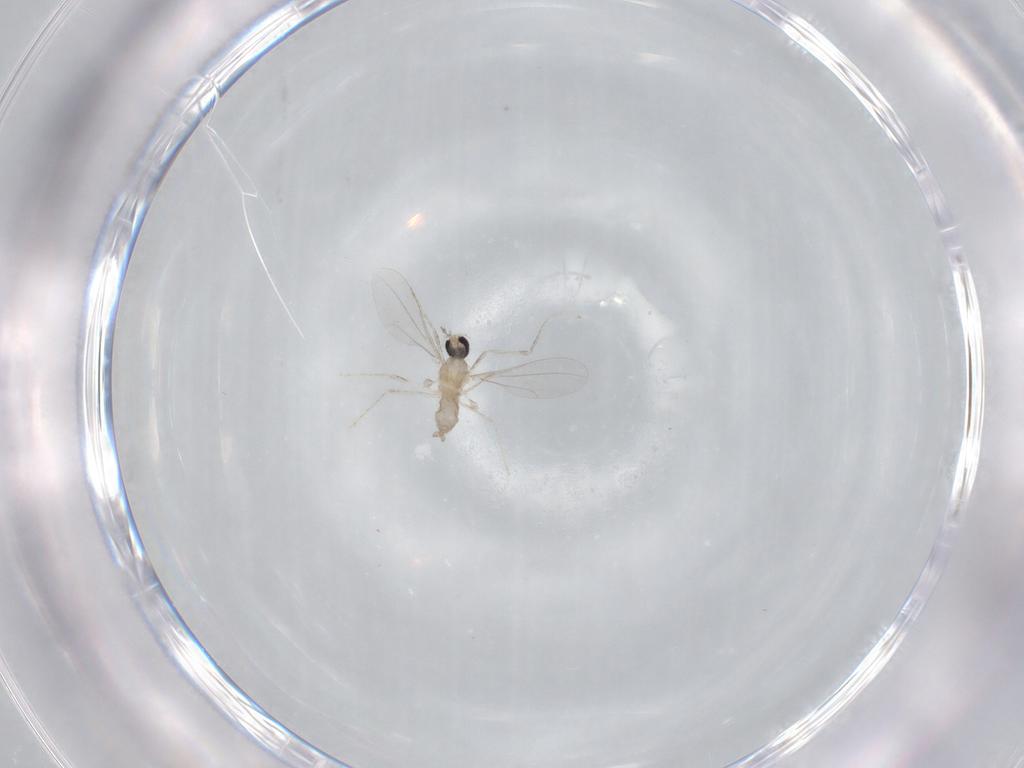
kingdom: Animalia
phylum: Arthropoda
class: Insecta
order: Diptera
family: Cecidomyiidae
